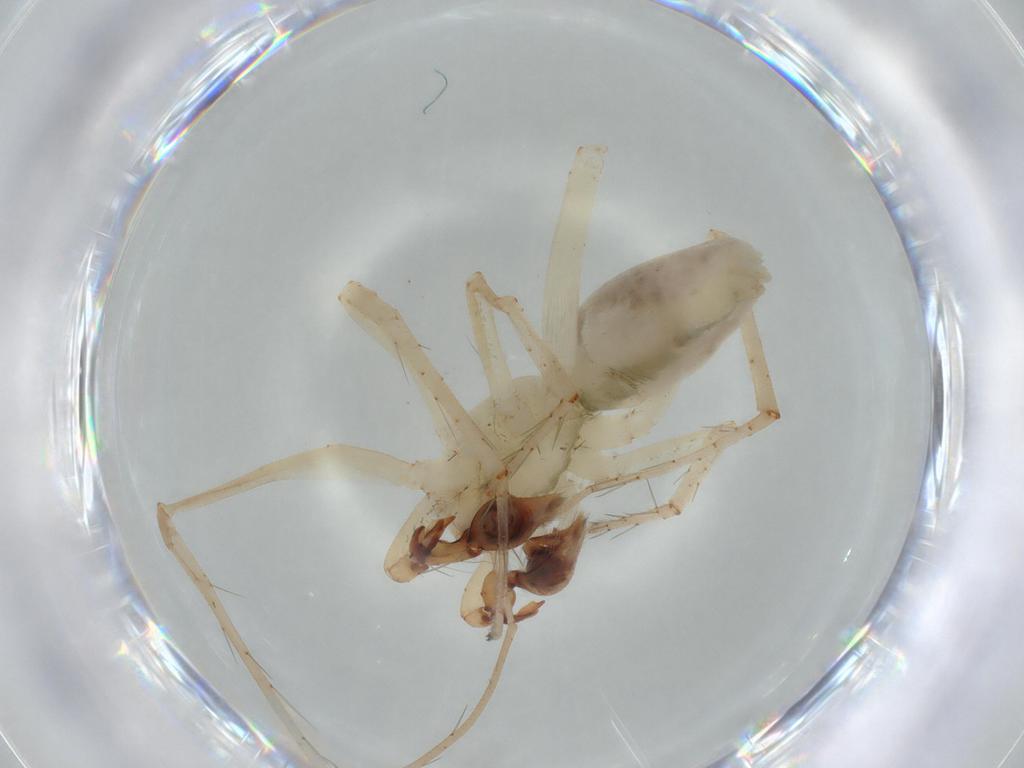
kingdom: Animalia
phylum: Arthropoda
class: Arachnida
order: Araneae
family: Anyphaenidae
